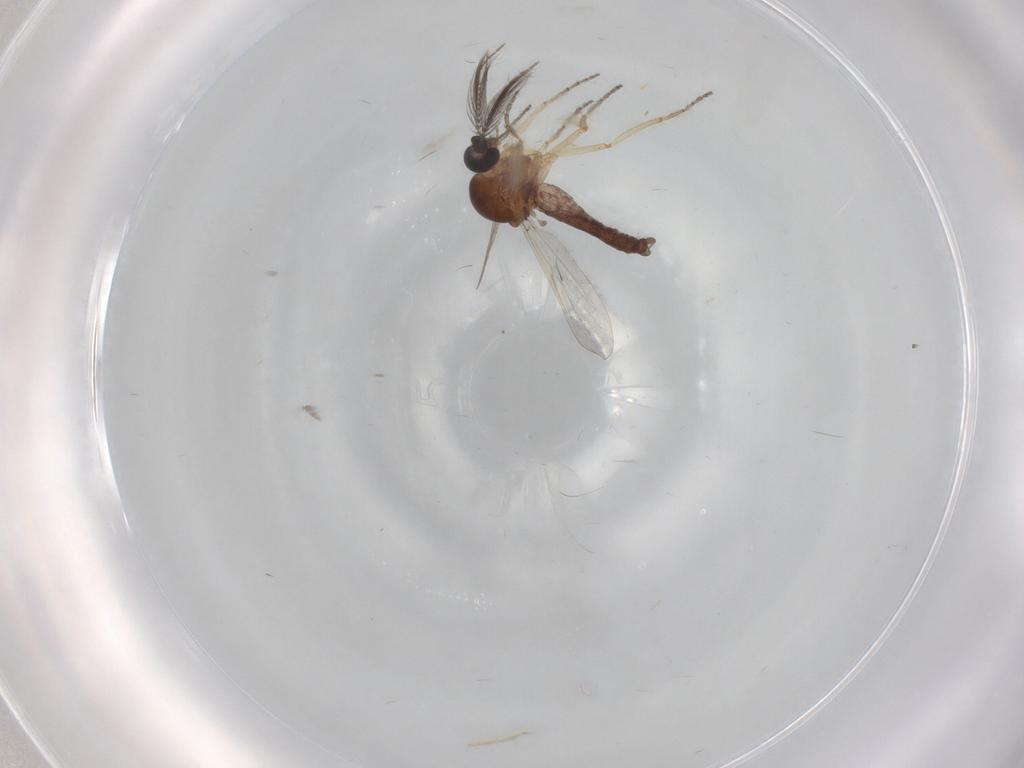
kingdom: Animalia
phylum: Arthropoda
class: Insecta
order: Diptera
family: Ceratopogonidae
